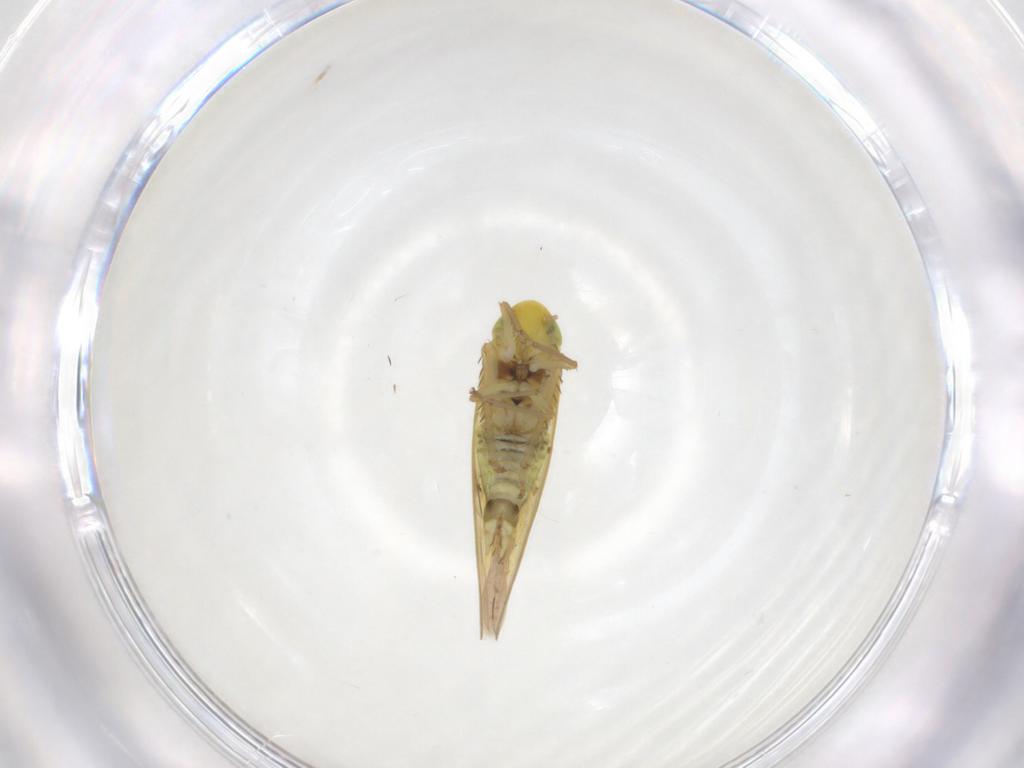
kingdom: Animalia
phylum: Arthropoda
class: Insecta
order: Hemiptera
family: Cicadellidae
